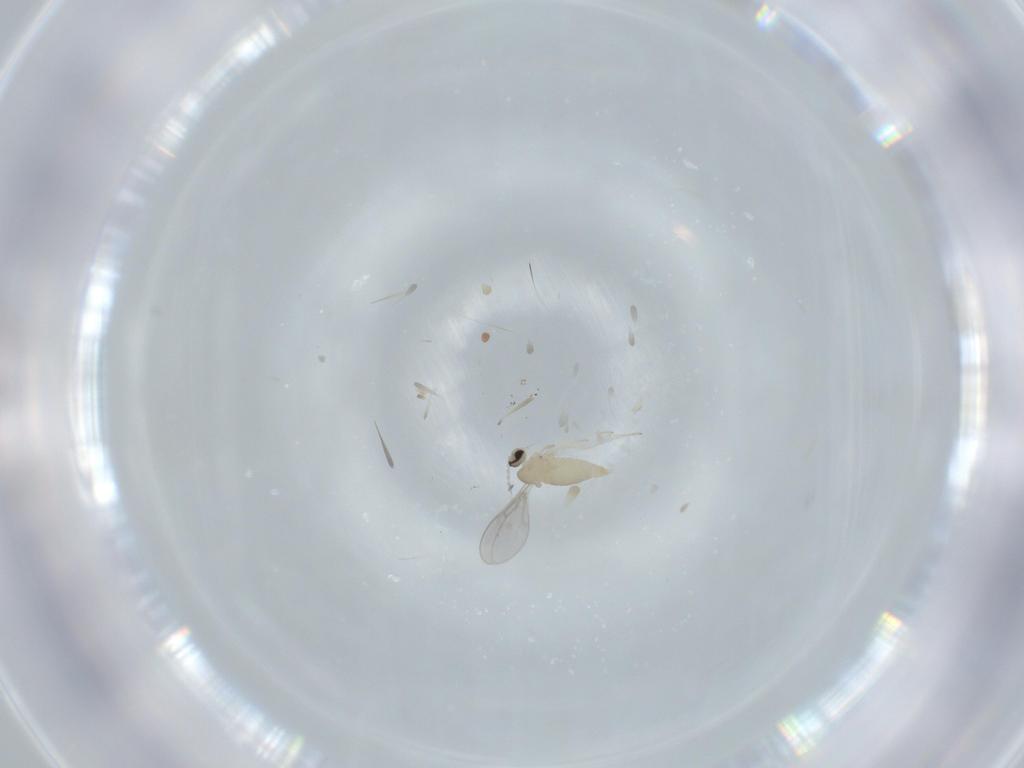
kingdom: Animalia
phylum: Arthropoda
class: Insecta
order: Diptera
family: Cecidomyiidae
